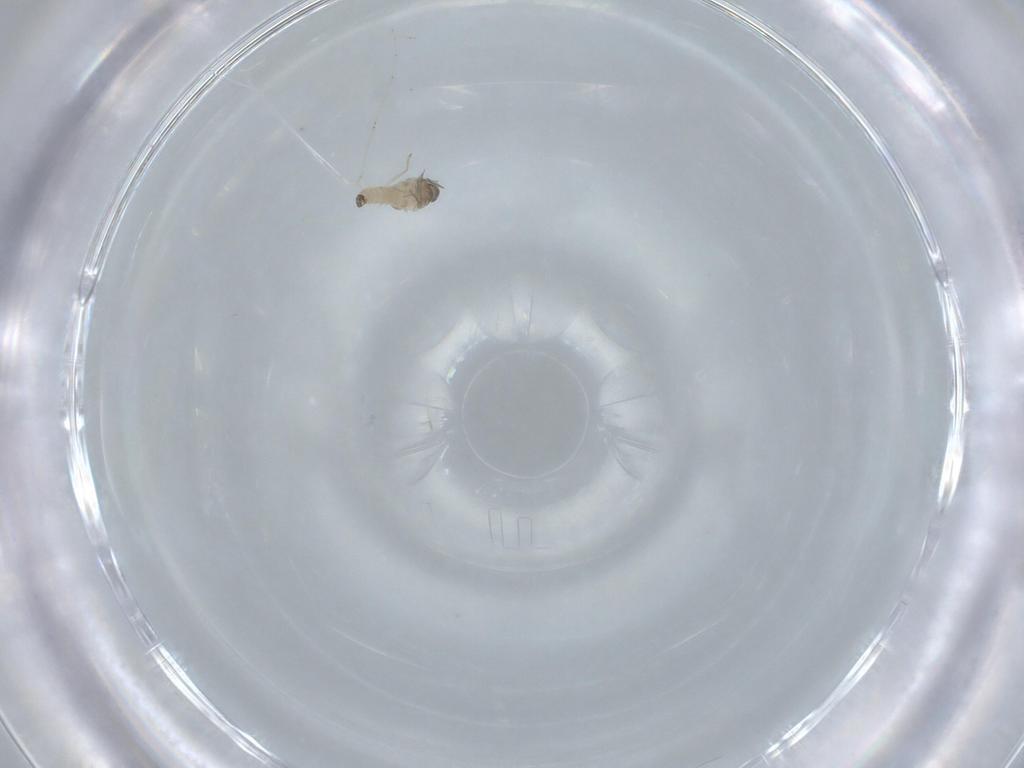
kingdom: Animalia
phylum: Arthropoda
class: Insecta
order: Diptera
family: Cecidomyiidae
